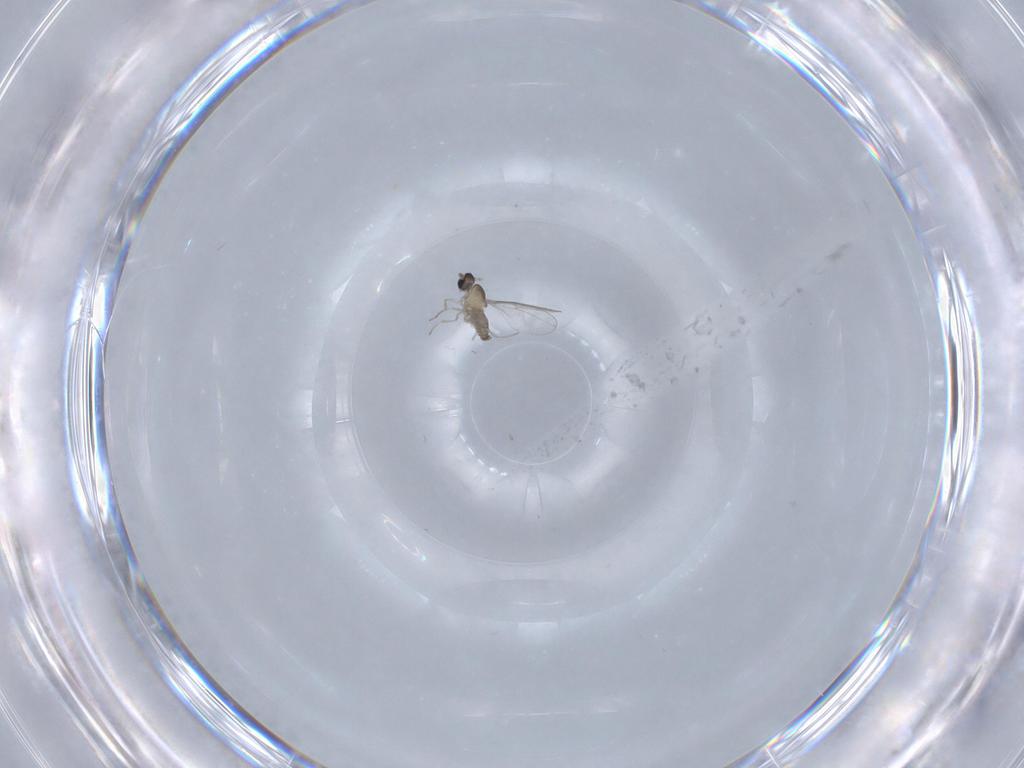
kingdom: Animalia
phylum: Arthropoda
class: Insecta
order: Diptera
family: Cecidomyiidae
